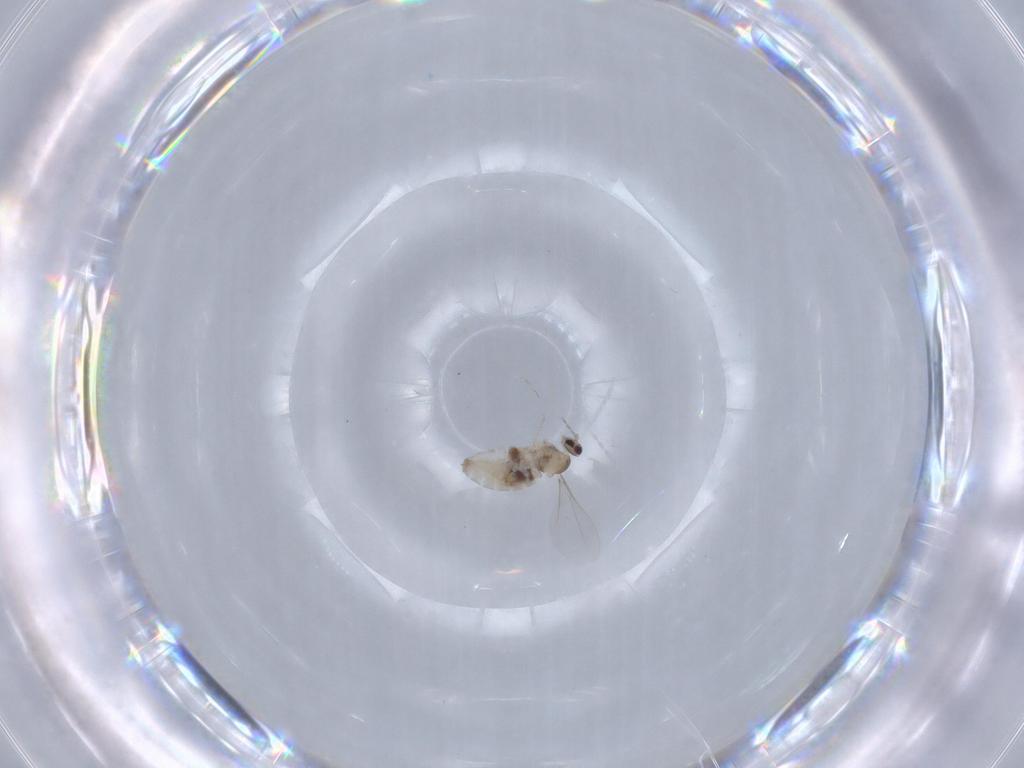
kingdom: Animalia
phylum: Arthropoda
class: Insecta
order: Diptera
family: Cecidomyiidae
